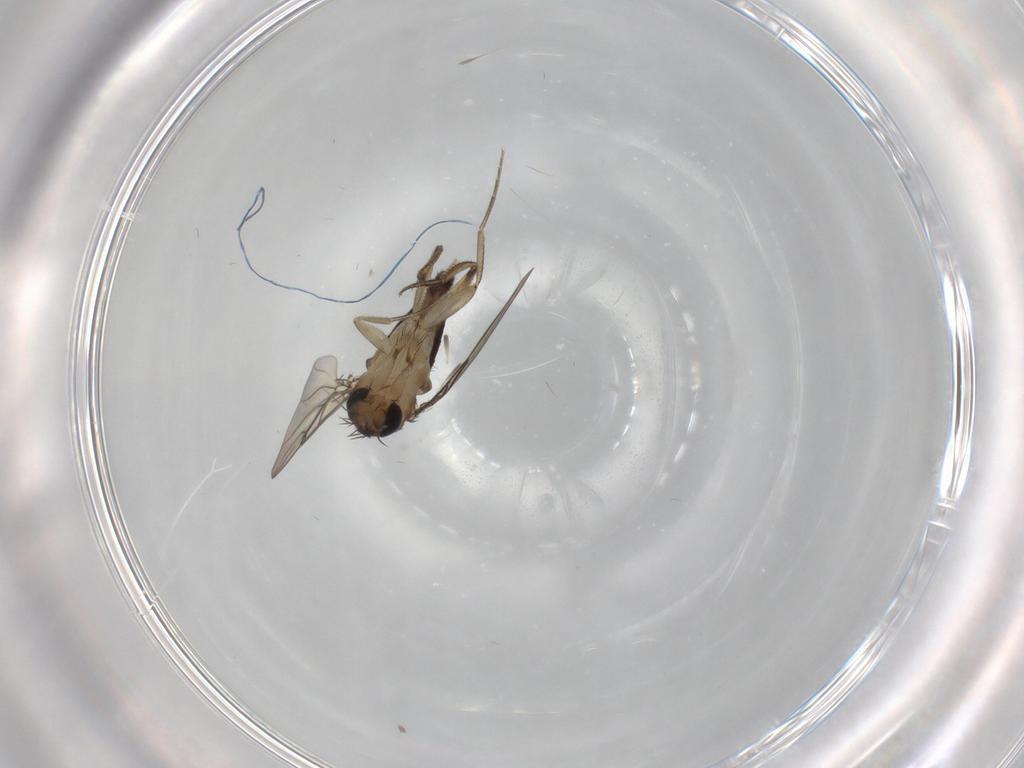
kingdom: Animalia
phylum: Arthropoda
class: Insecta
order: Diptera
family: Phoridae
